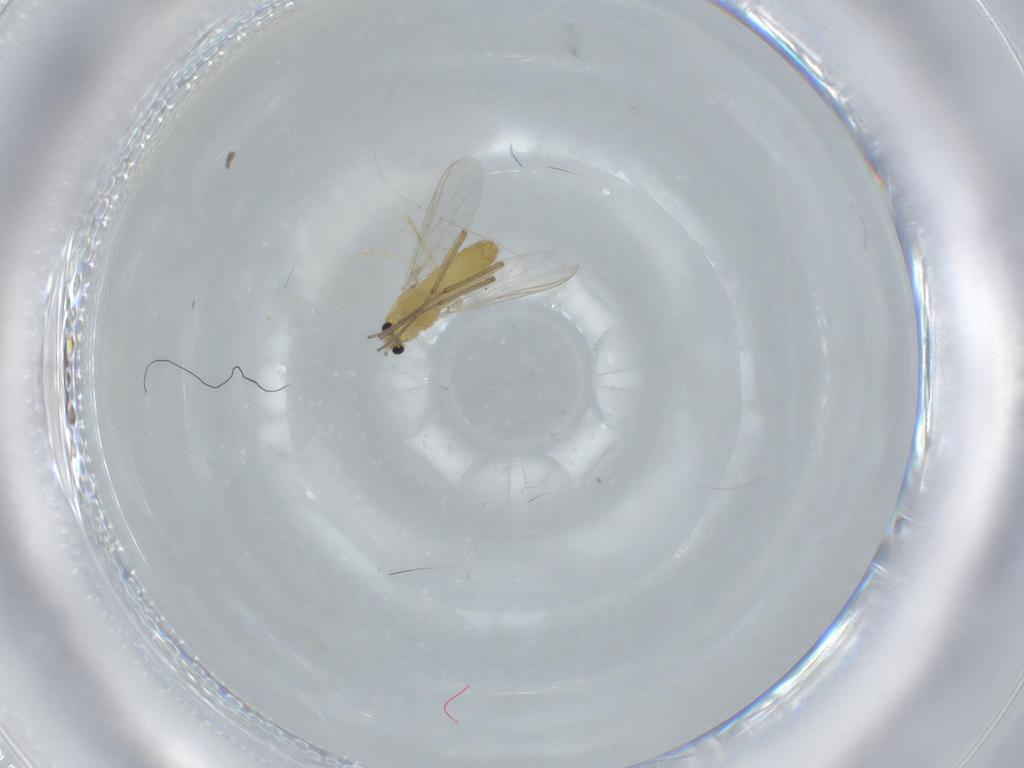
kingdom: Animalia
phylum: Arthropoda
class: Insecta
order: Diptera
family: Chironomidae
